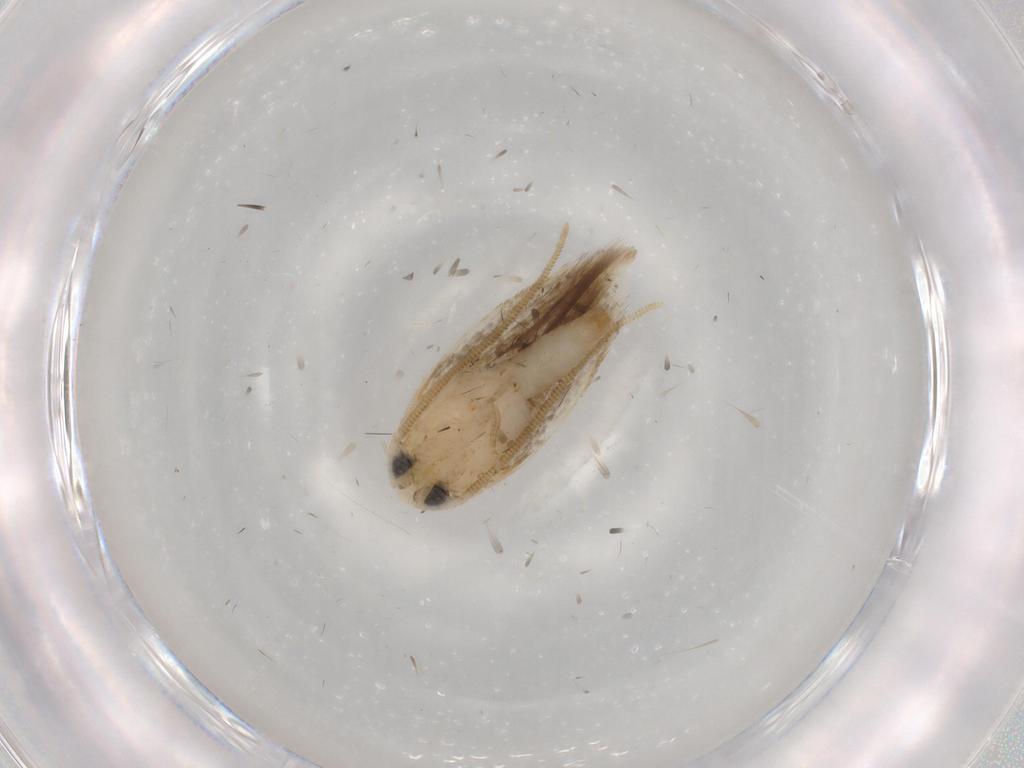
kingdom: Animalia
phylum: Arthropoda
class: Insecta
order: Lepidoptera
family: Opostegidae
